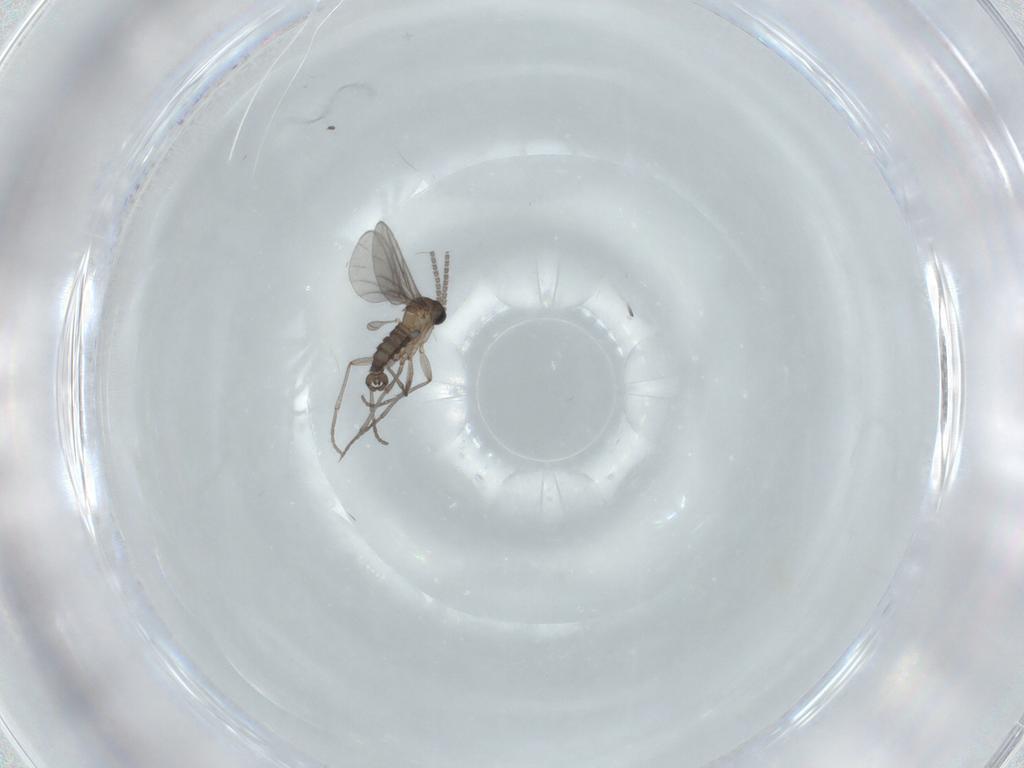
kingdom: Animalia
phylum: Arthropoda
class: Insecta
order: Diptera
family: Sciaridae
